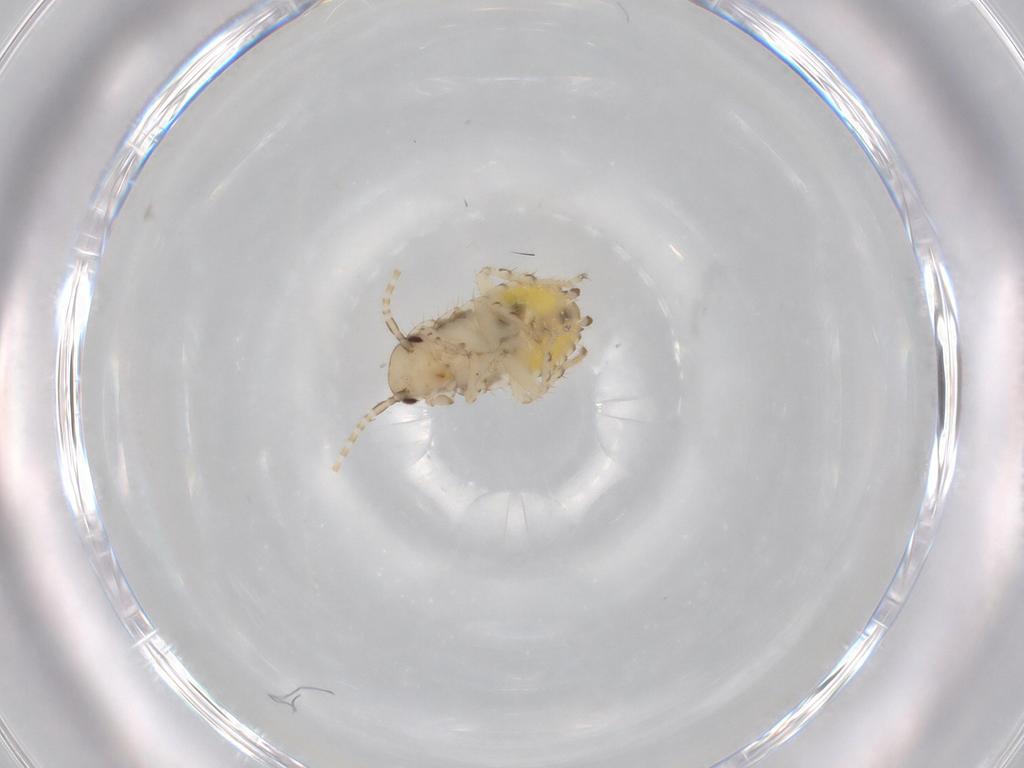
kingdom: Animalia
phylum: Arthropoda
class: Insecta
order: Blattodea
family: Ectobiidae
